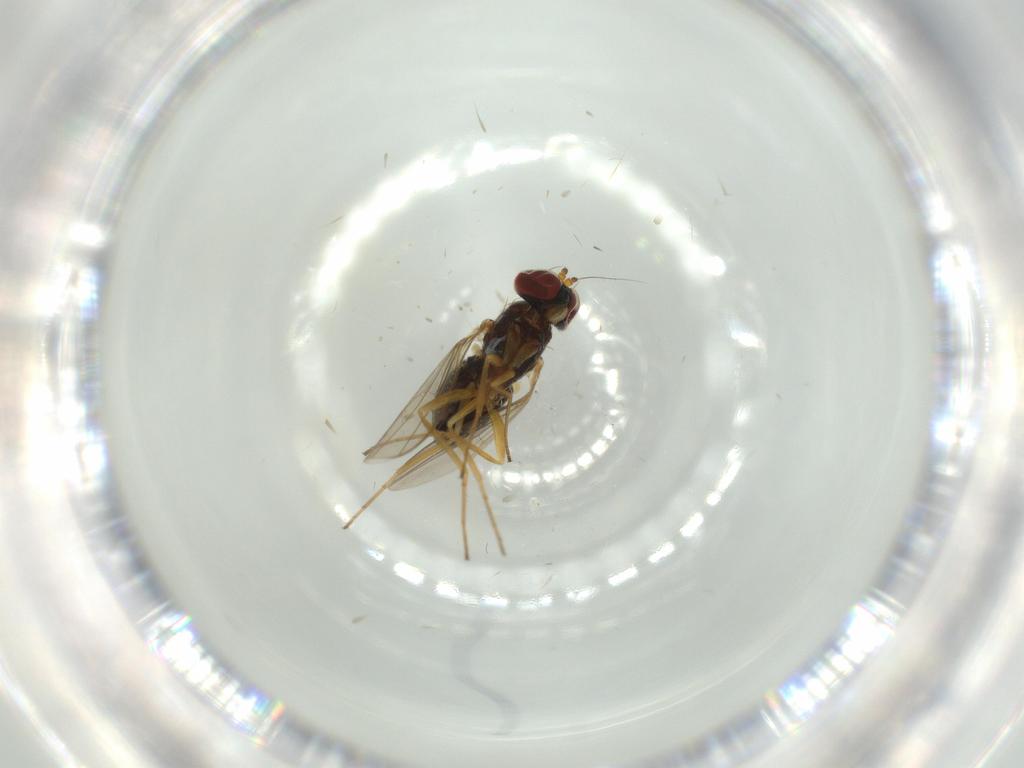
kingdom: Animalia
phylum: Arthropoda
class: Insecta
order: Diptera
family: Dolichopodidae
